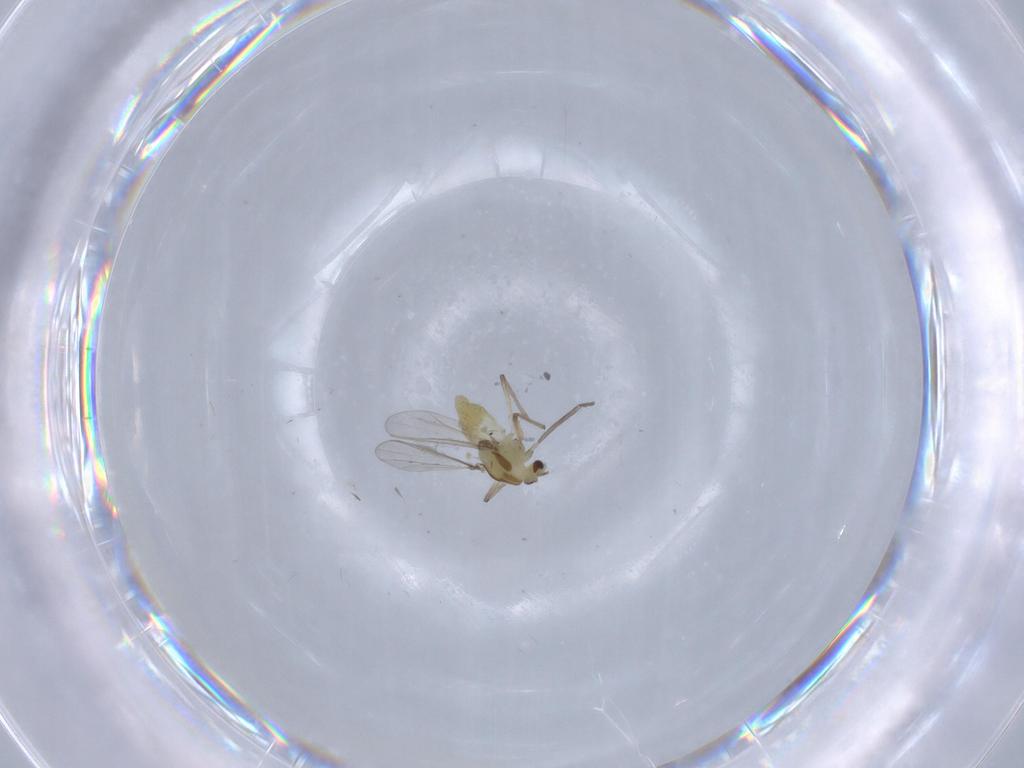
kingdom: Animalia
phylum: Arthropoda
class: Insecta
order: Diptera
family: Chironomidae
